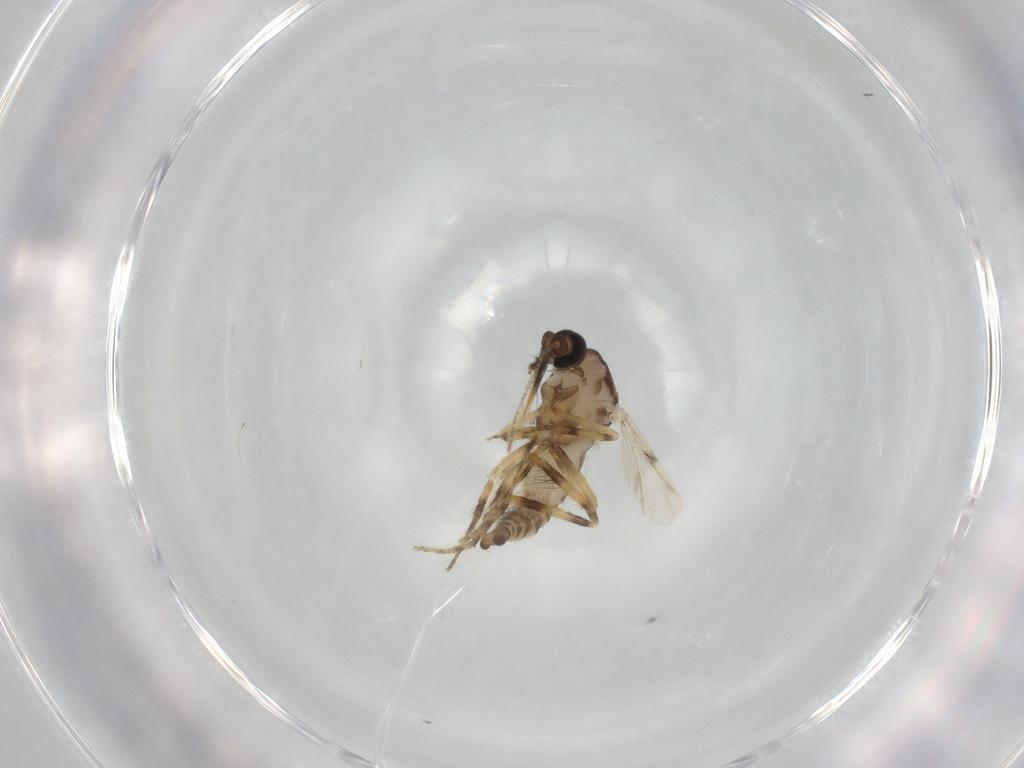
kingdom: Animalia
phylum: Arthropoda
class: Insecta
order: Diptera
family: Ceratopogonidae
